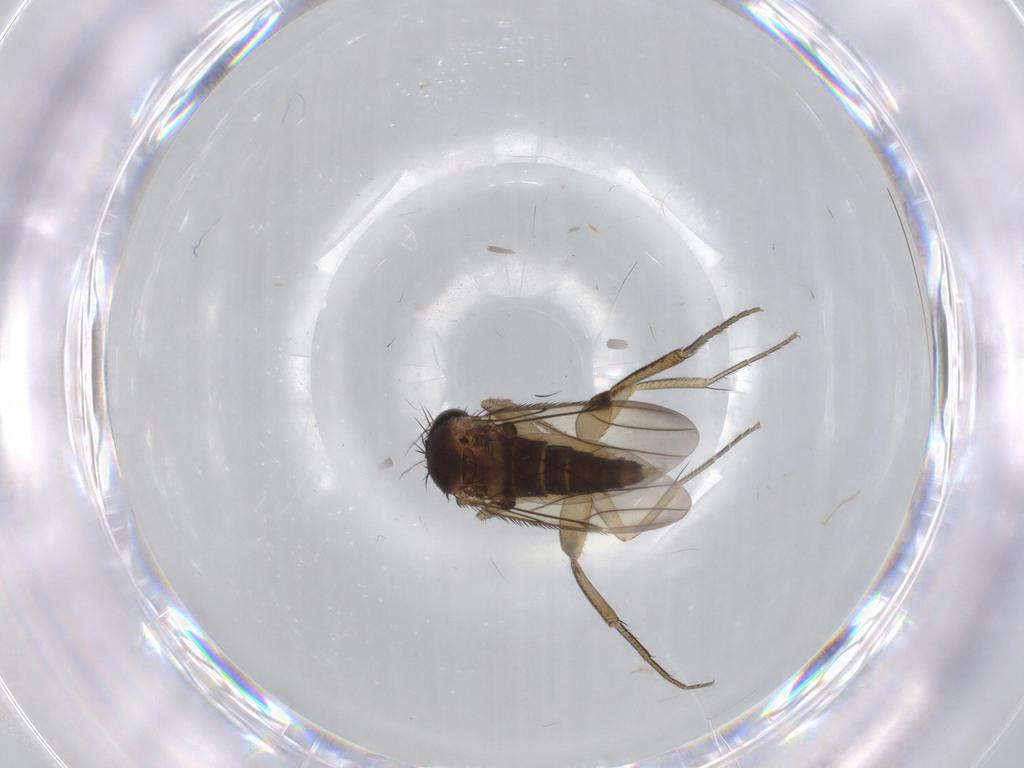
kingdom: Animalia
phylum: Arthropoda
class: Insecta
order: Diptera
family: Phoridae
